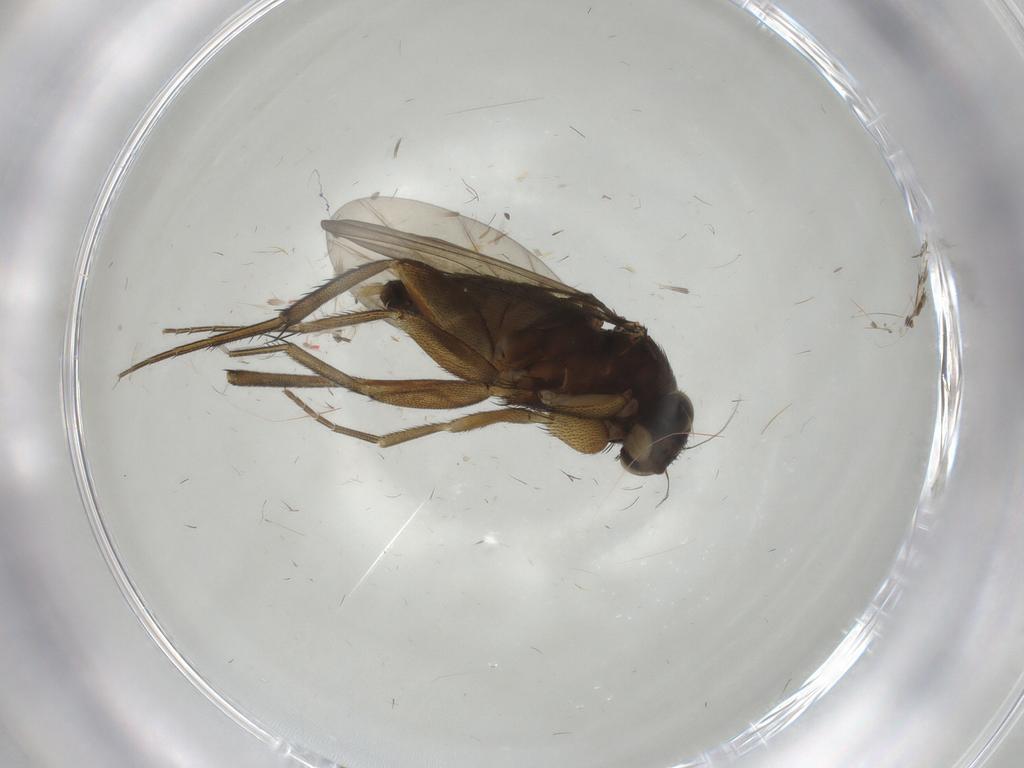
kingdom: Animalia
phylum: Arthropoda
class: Insecta
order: Diptera
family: Phoridae
